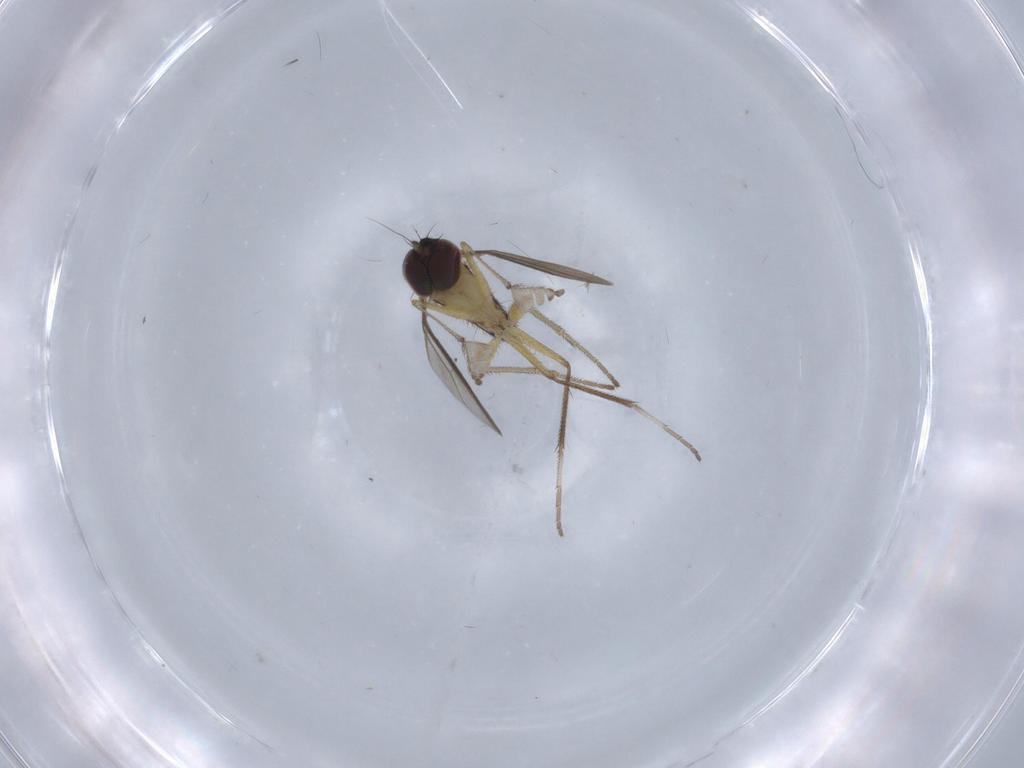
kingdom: Animalia
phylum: Arthropoda
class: Insecta
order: Diptera
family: Dolichopodidae
